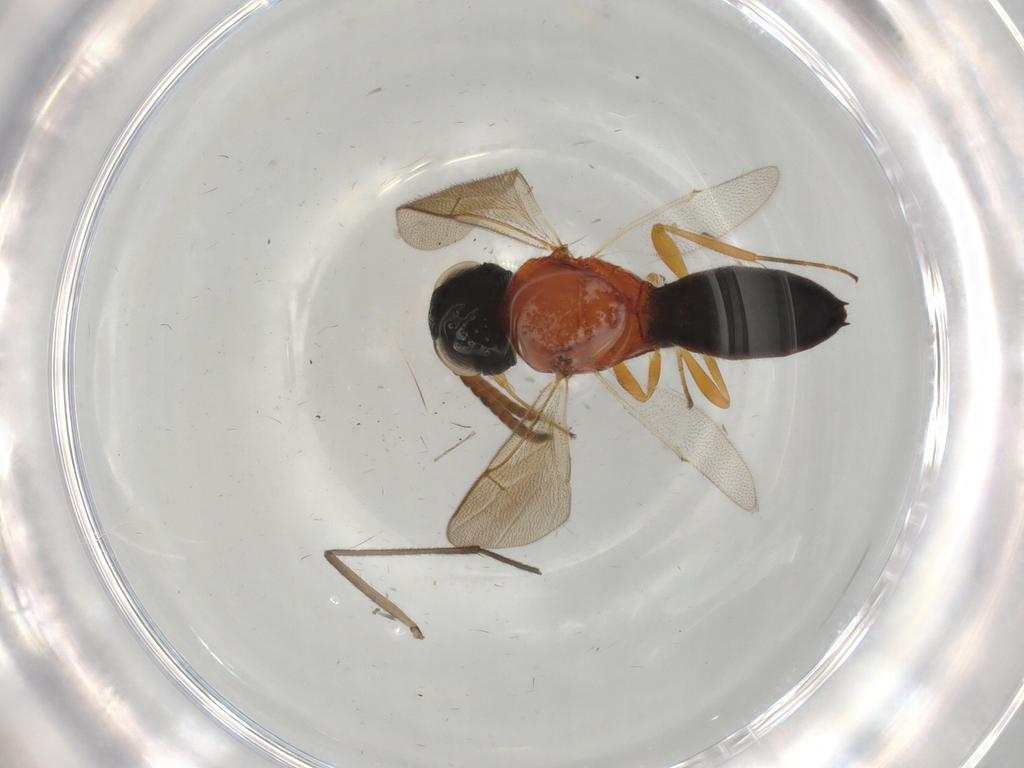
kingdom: Animalia
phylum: Arthropoda
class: Insecta
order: Hymenoptera
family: Scelionidae
